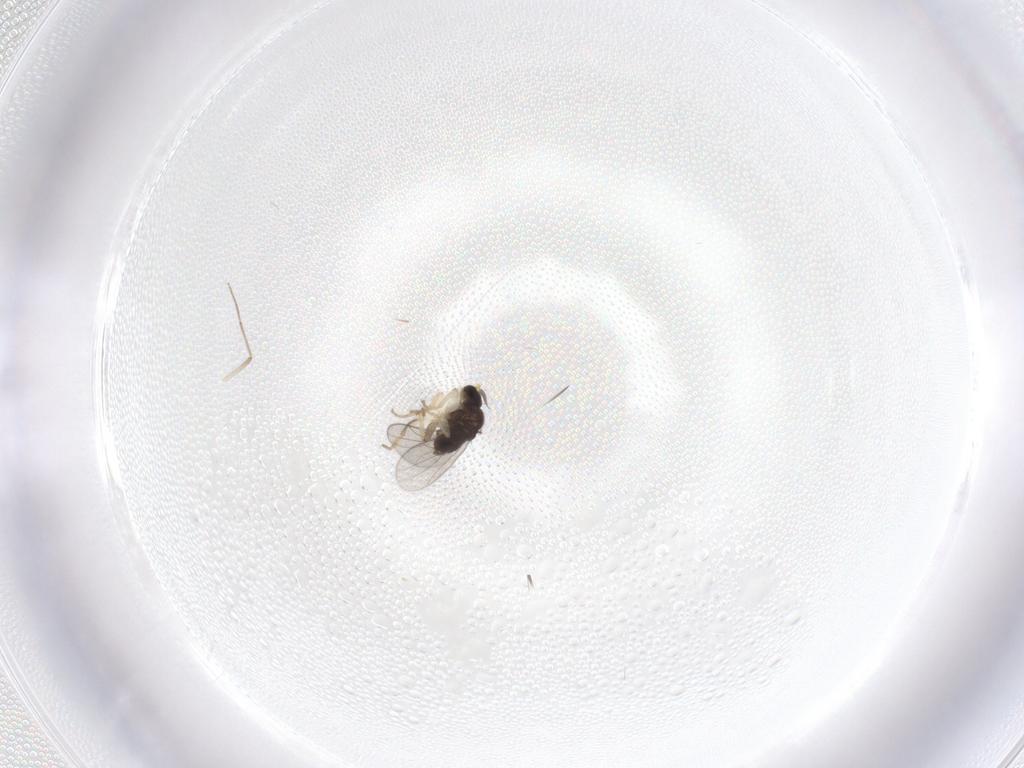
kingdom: Animalia
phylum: Arthropoda
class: Insecta
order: Diptera
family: Hybotidae
